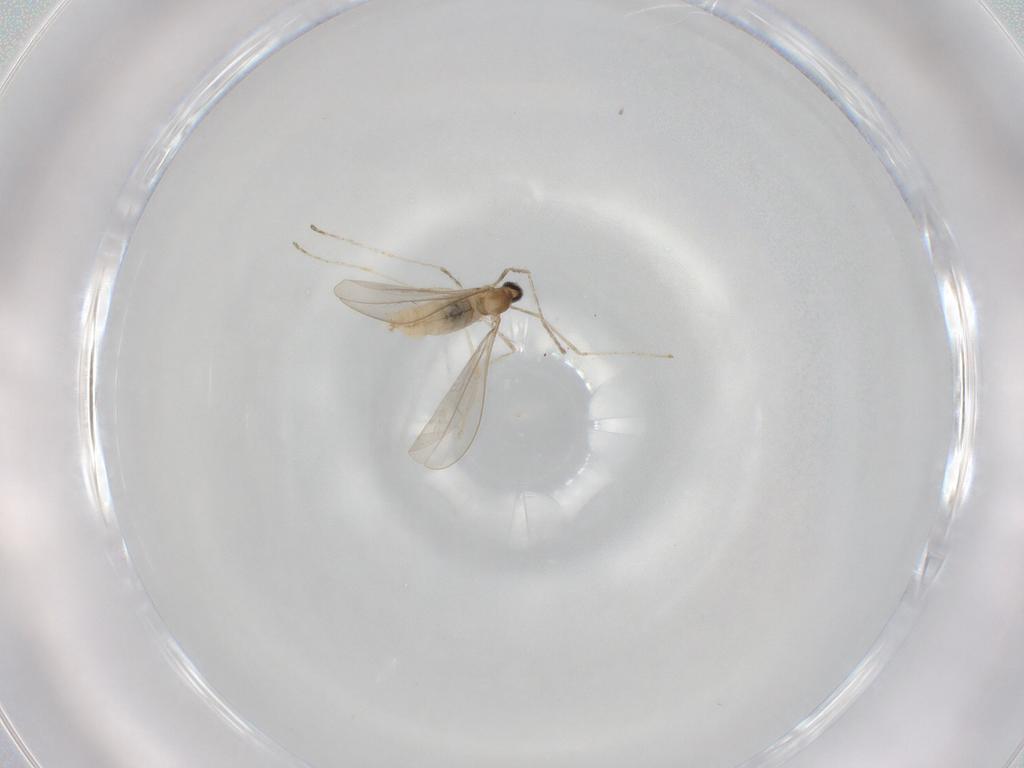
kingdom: Animalia
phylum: Arthropoda
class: Insecta
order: Diptera
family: Cecidomyiidae
